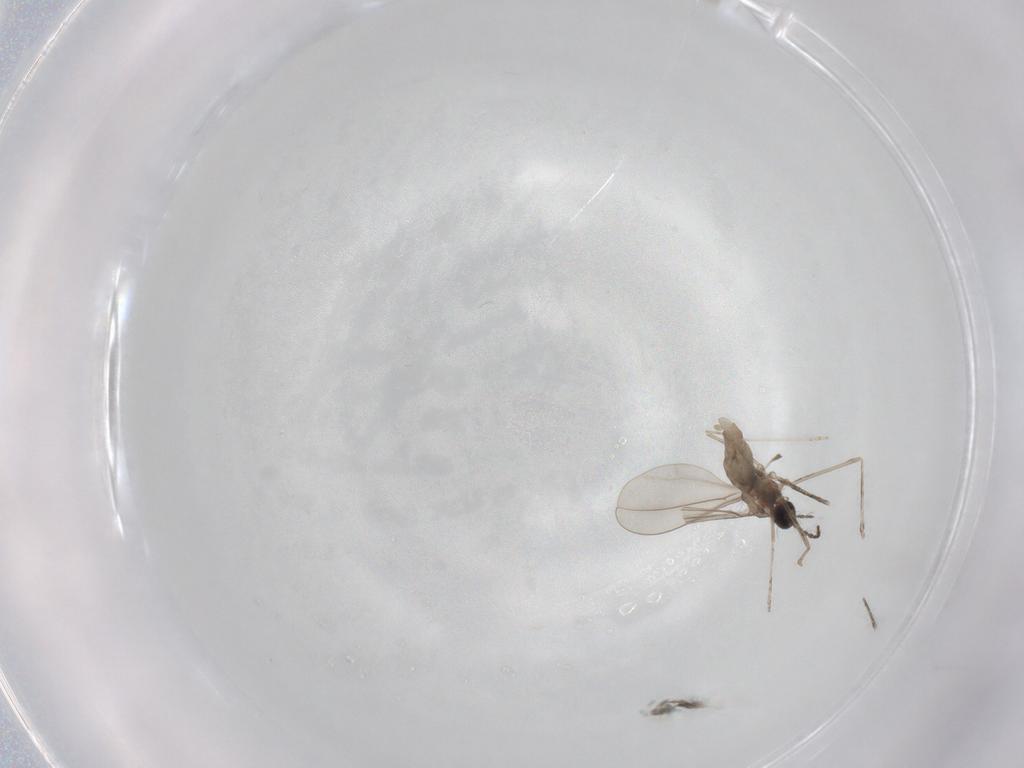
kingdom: Animalia
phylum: Arthropoda
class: Insecta
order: Diptera
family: Cecidomyiidae
